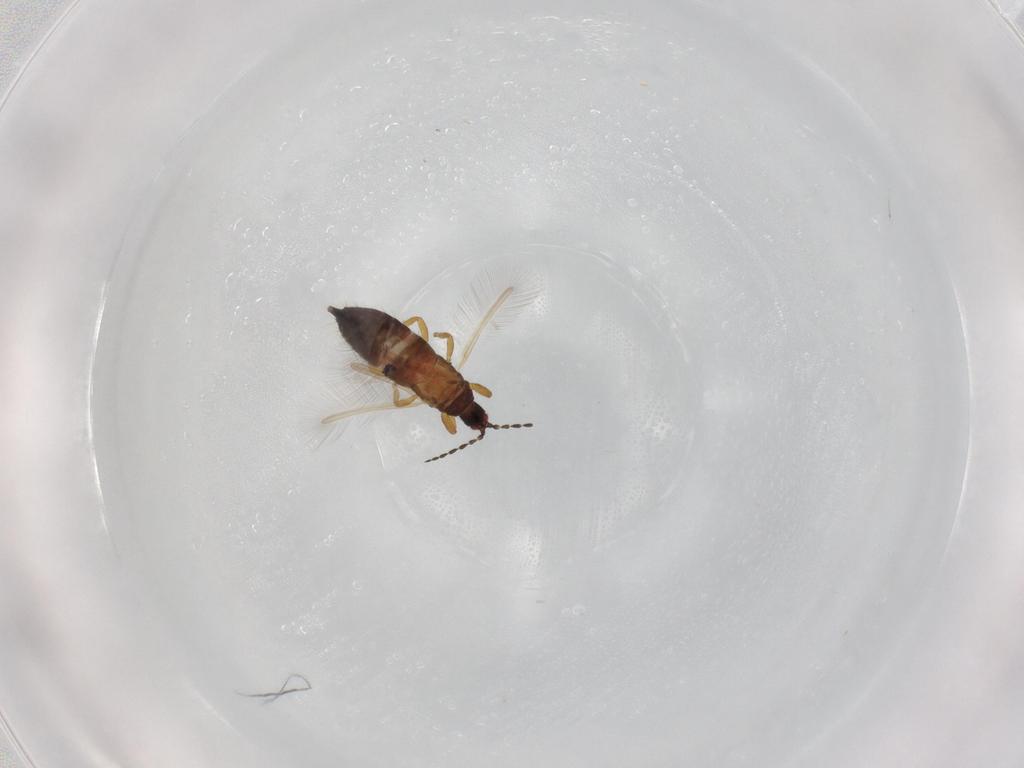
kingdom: Animalia
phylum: Arthropoda
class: Insecta
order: Thysanoptera
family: Phlaeothripidae
